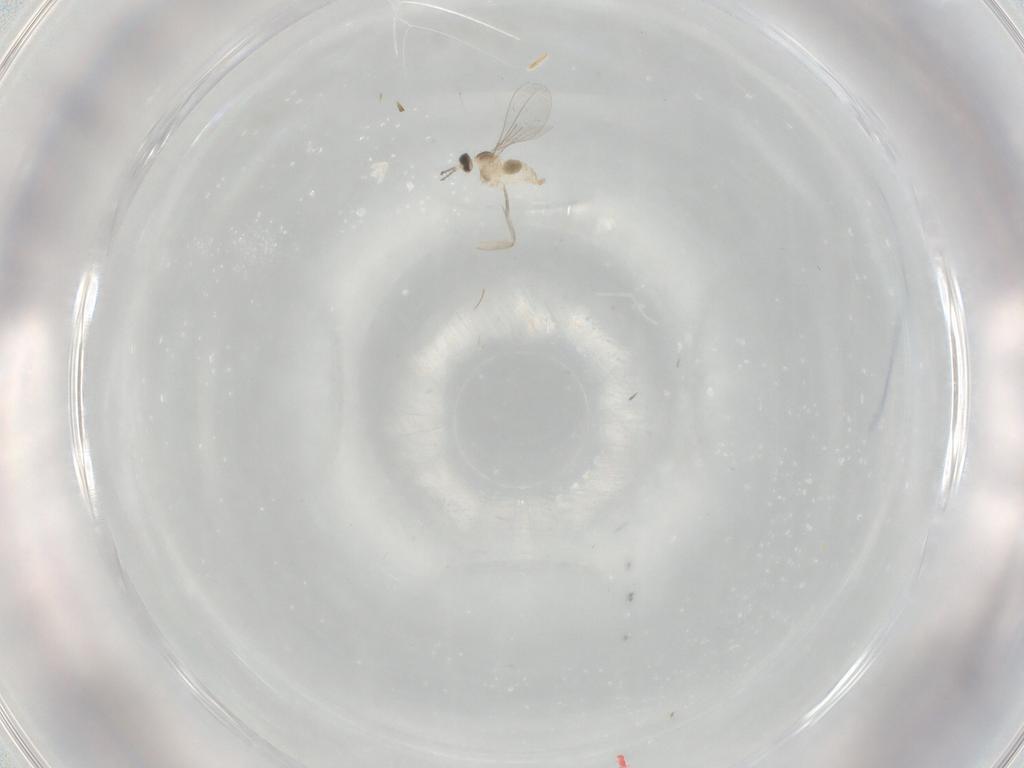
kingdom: Animalia
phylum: Arthropoda
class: Insecta
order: Diptera
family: Cecidomyiidae
